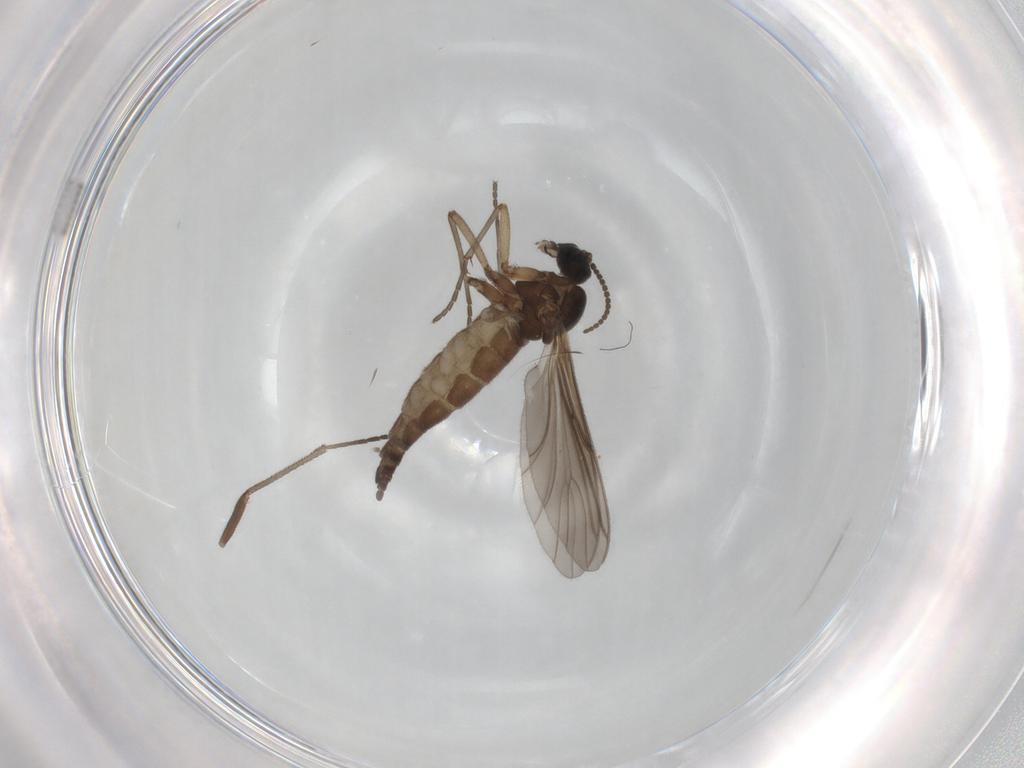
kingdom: Animalia
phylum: Arthropoda
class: Insecta
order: Diptera
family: Sciaridae
